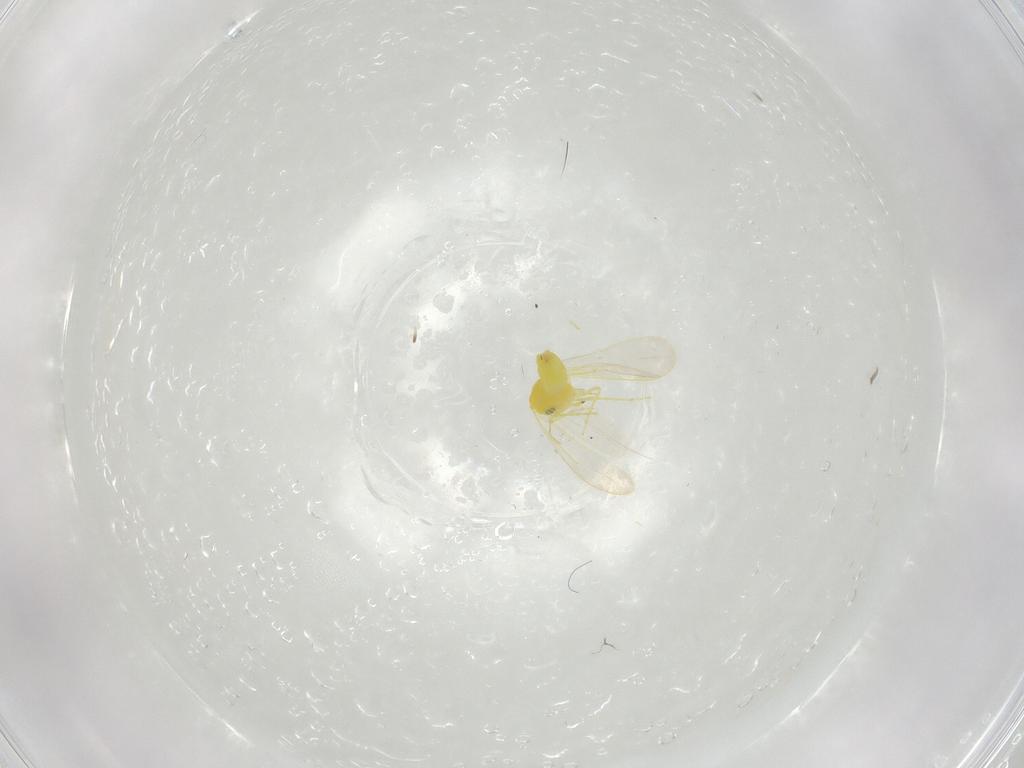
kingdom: Animalia
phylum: Arthropoda
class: Insecta
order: Hemiptera
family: Aleyrodidae
